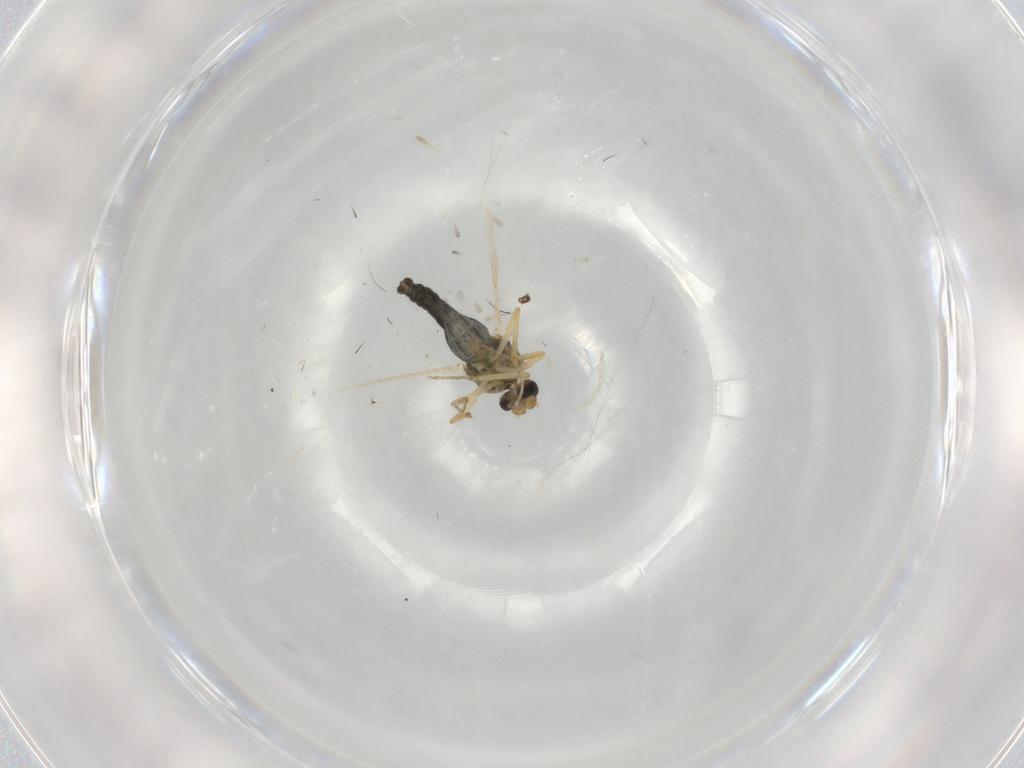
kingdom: Animalia
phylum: Arthropoda
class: Insecta
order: Diptera
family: Ceratopogonidae
